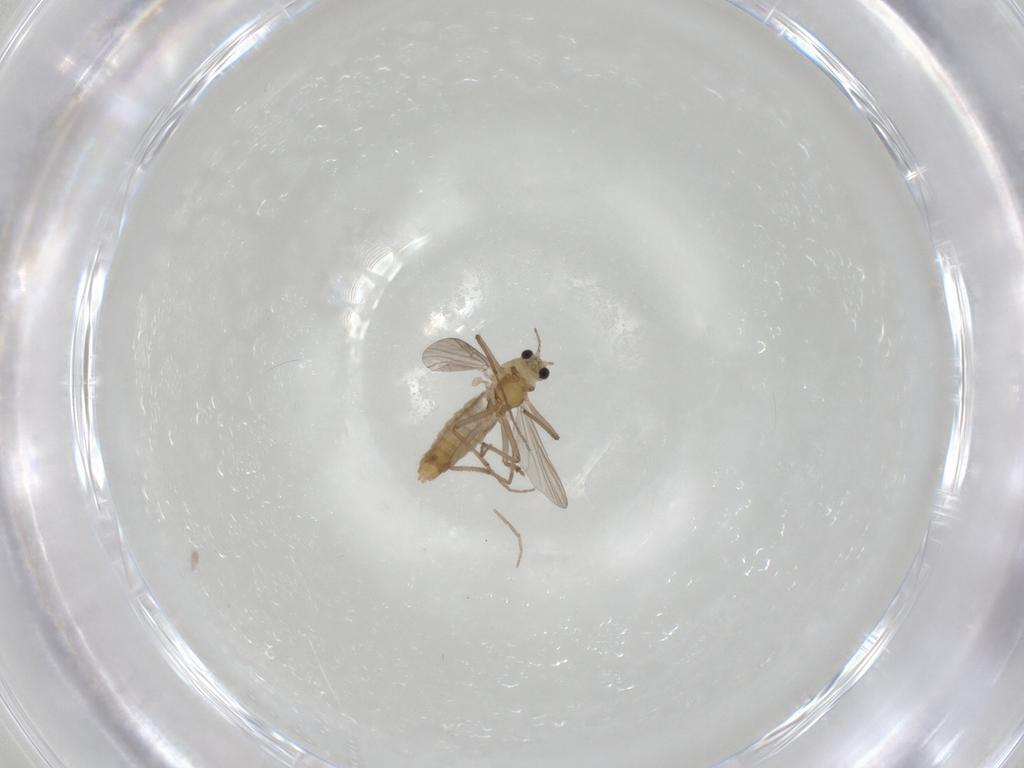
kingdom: Animalia
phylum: Arthropoda
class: Insecta
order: Diptera
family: Chironomidae
